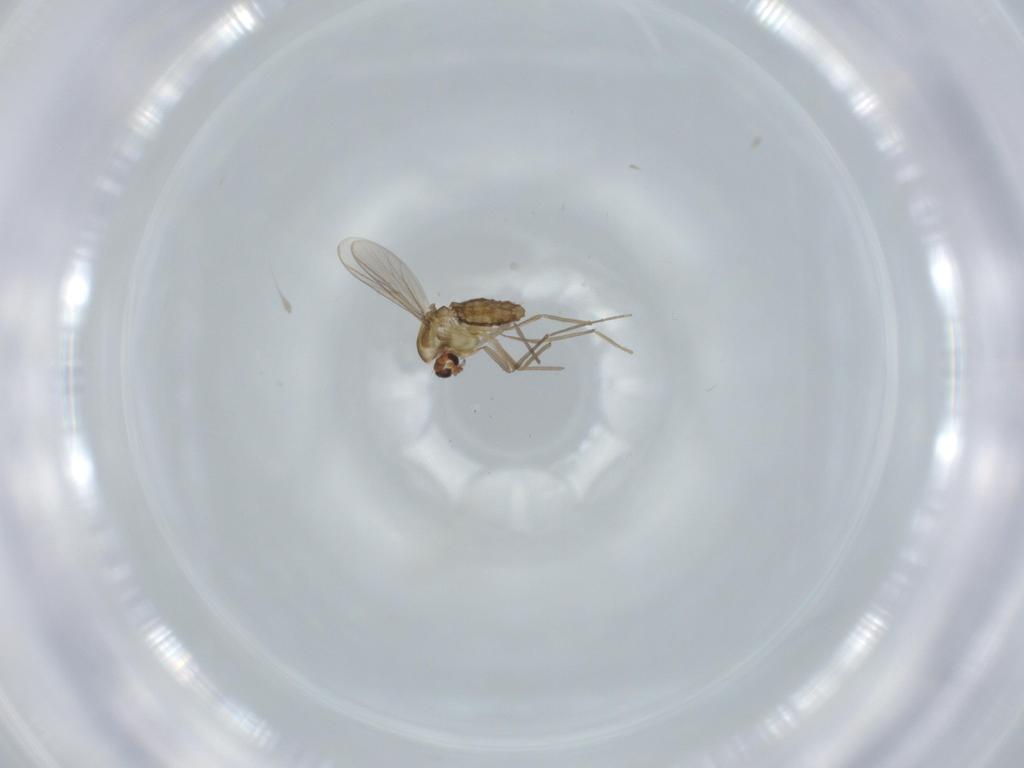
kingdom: Animalia
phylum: Arthropoda
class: Insecta
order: Diptera
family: Chironomidae
